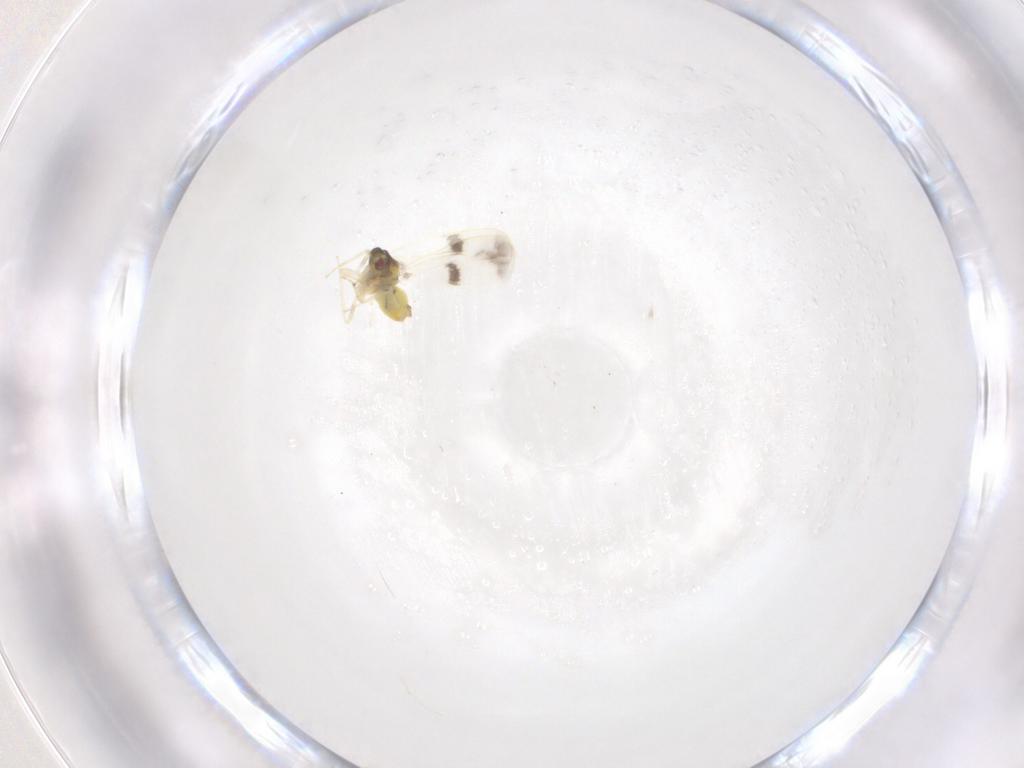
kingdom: Animalia
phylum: Arthropoda
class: Insecta
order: Hemiptera
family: Aleyrodidae
